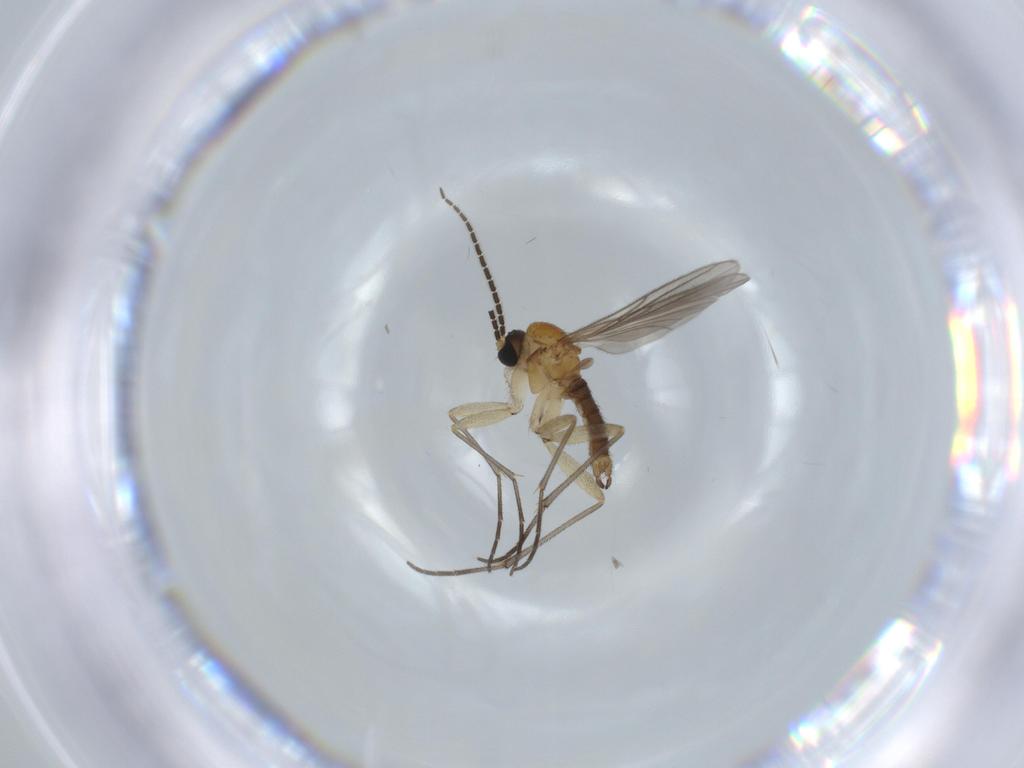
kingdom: Animalia
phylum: Arthropoda
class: Insecta
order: Diptera
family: Sciaridae
